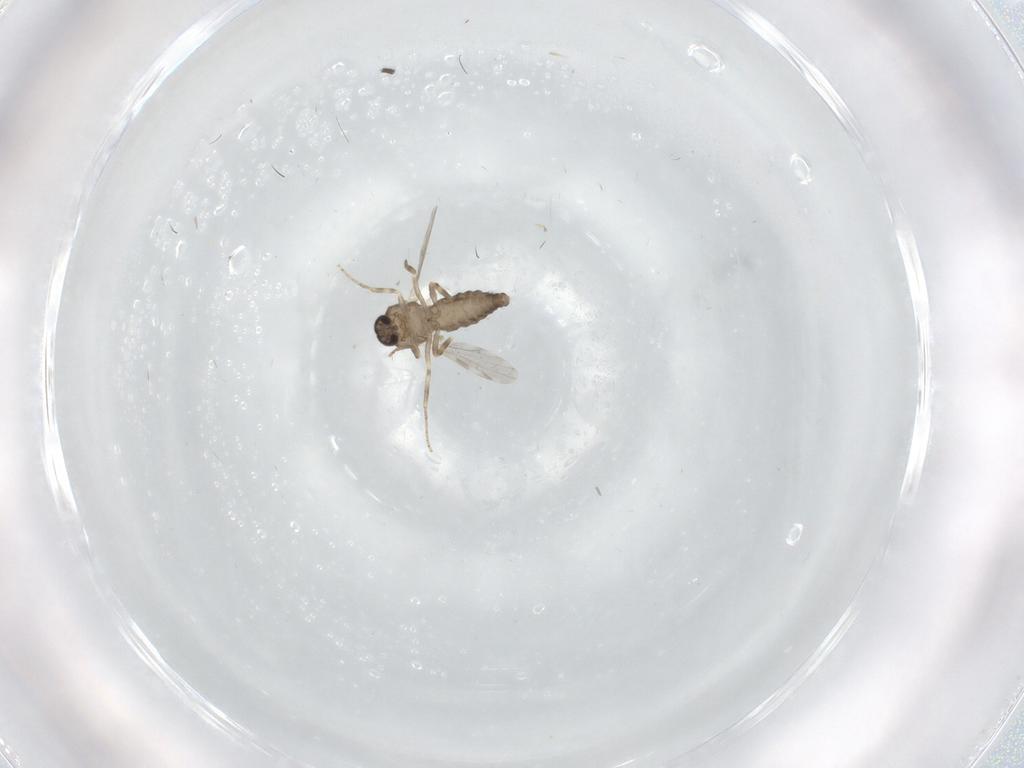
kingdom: Animalia
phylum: Arthropoda
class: Insecta
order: Diptera
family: Ceratopogonidae
